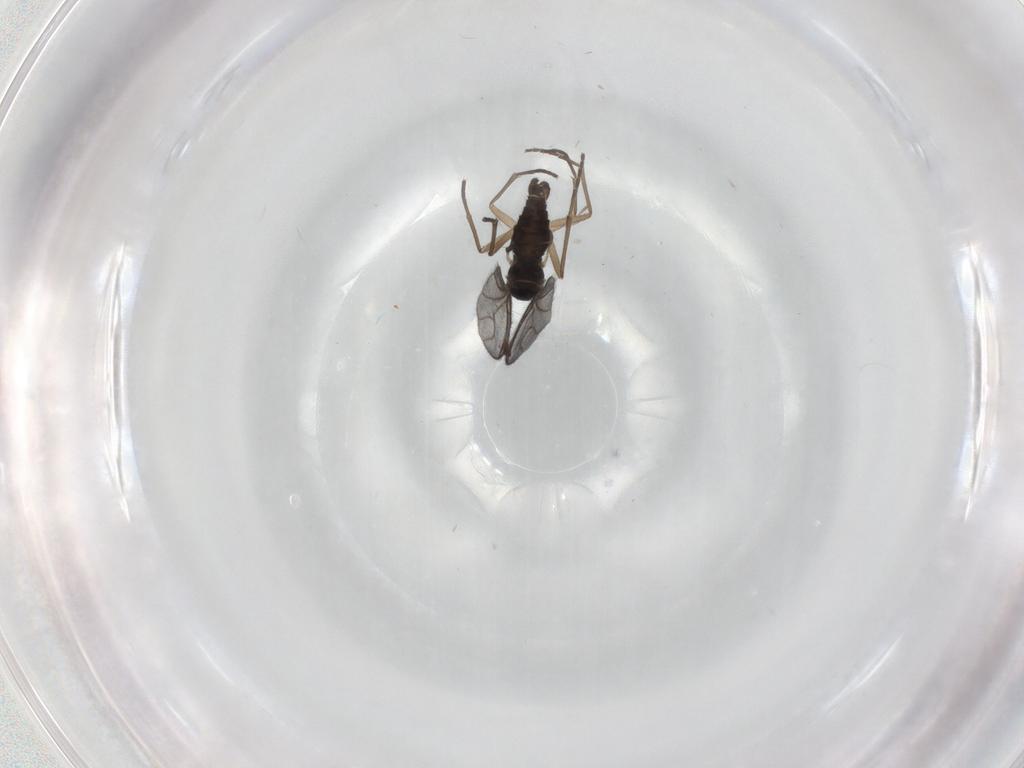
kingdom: Animalia
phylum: Arthropoda
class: Insecta
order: Diptera
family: Sciaridae
